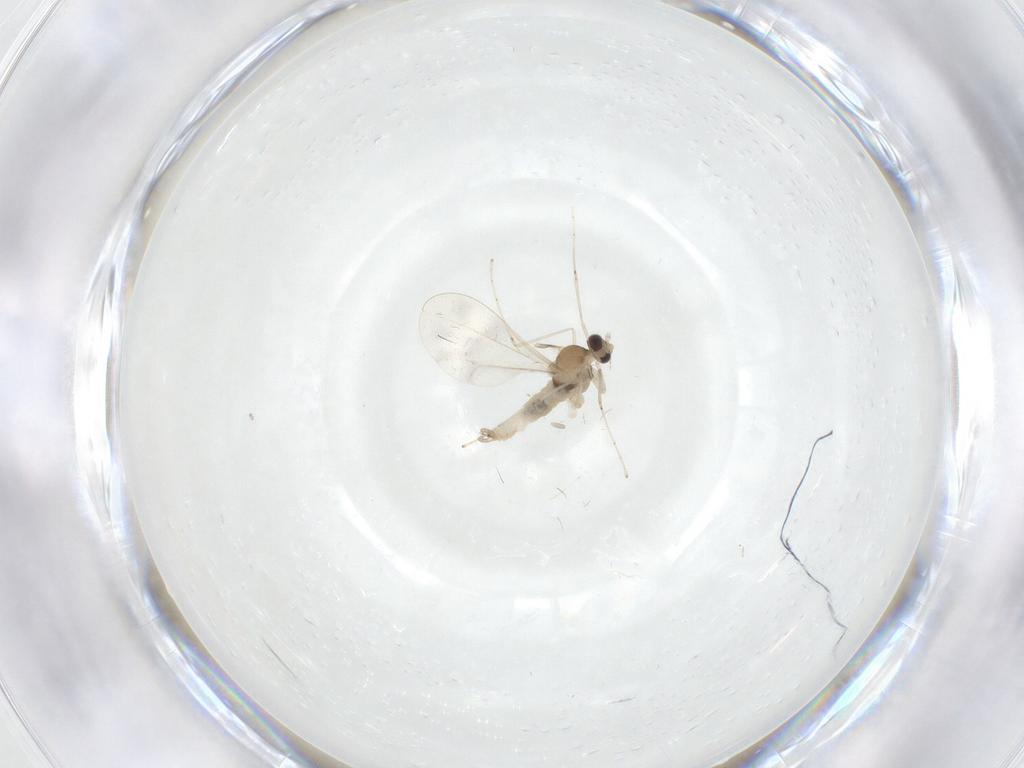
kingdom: Animalia
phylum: Arthropoda
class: Insecta
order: Diptera
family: Cecidomyiidae
